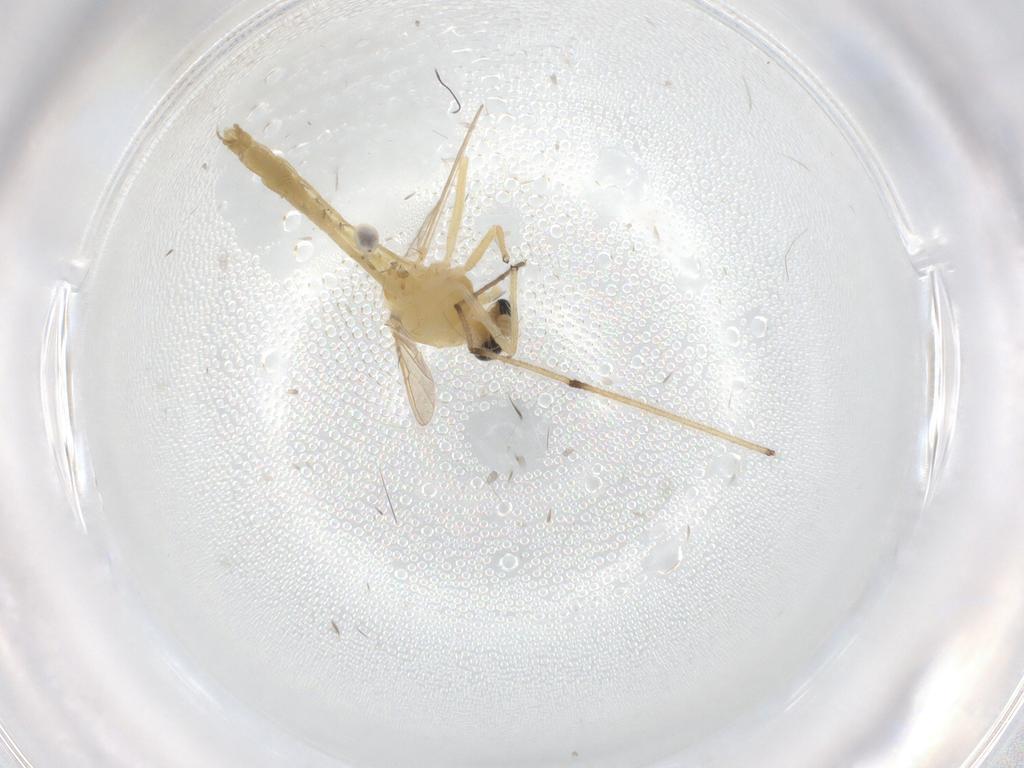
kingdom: Animalia
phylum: Arthropoda
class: Insecta
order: Diptera
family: Chironomidae
